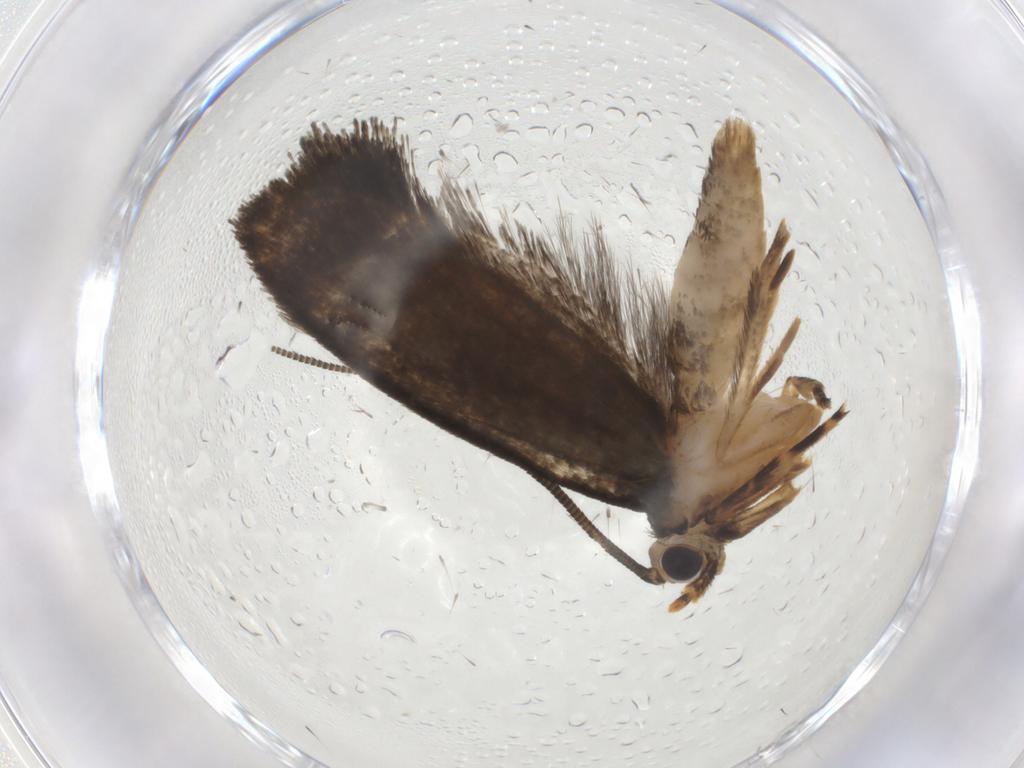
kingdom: Animalia
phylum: Arthropoda
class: Insecta
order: Lepidoptera
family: Tineidae
